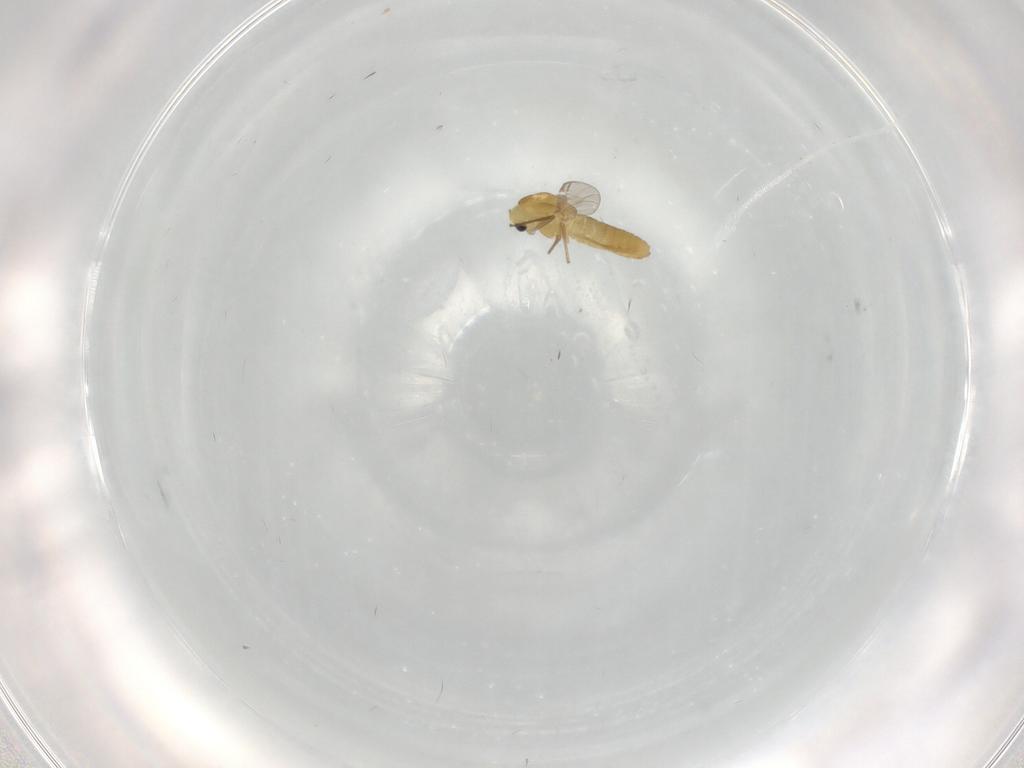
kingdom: Animalia
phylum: Arthropoda
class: Insecta
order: Diptera
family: Chironomidae
